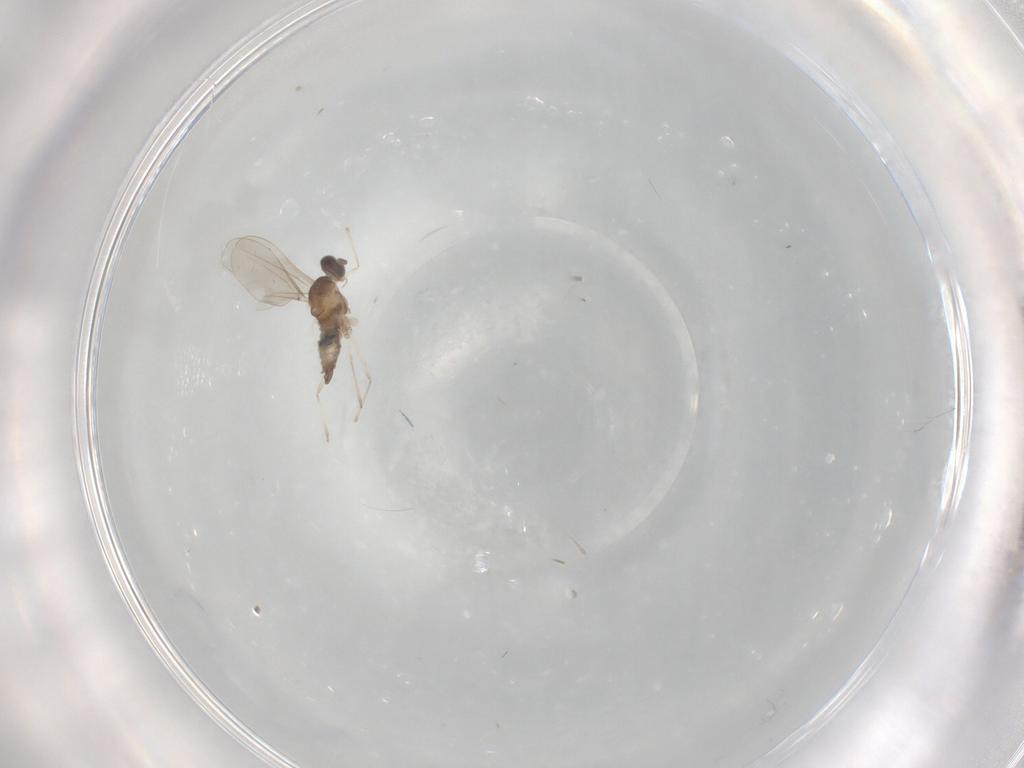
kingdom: Animalia
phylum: Arthropoda
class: Insecta
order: Diptera
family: Cecidomyiidae
